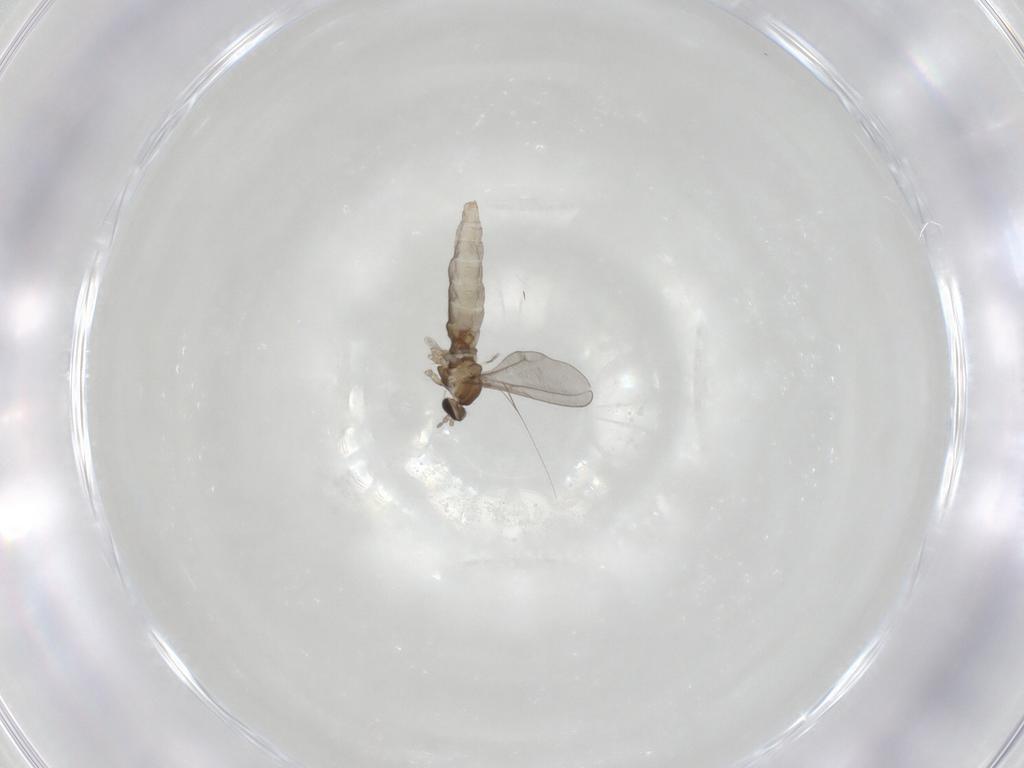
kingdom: Animalia
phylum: Arthropoda
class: Insecta
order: Diptera
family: Cecidomyiidae
